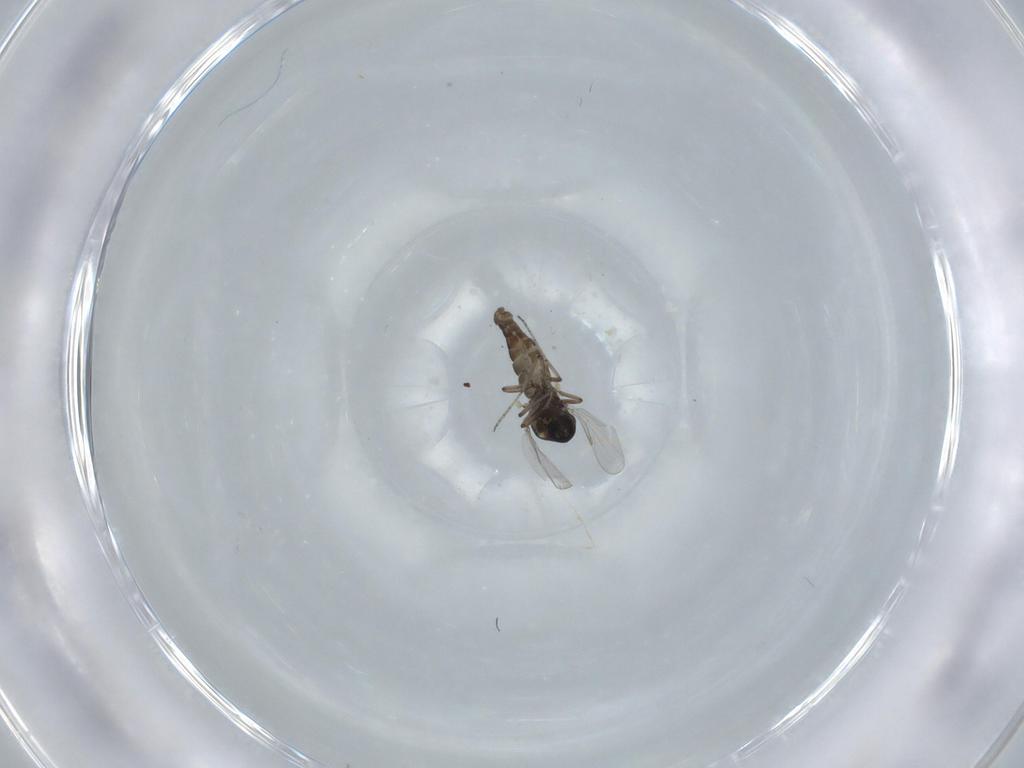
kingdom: Animalia
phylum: Arthropoda
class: Insecta
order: Diptera
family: Chironomidae
